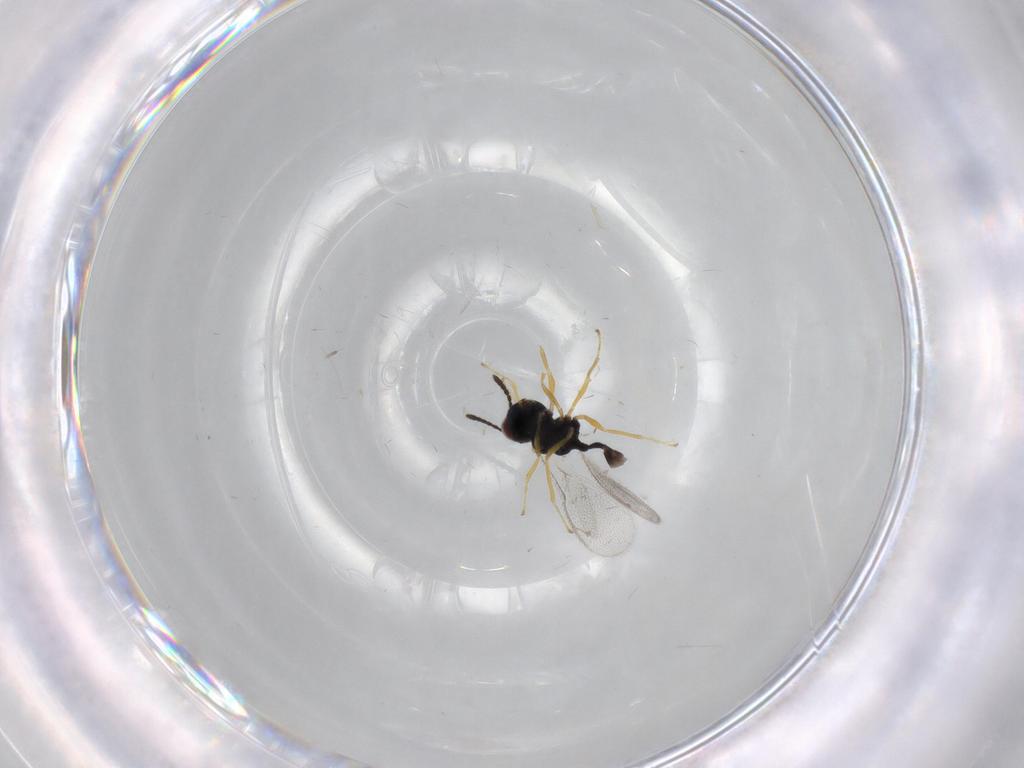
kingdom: Animalia
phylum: Arthropoda
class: Insecta
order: Hymenoptera
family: Pteromalidae
